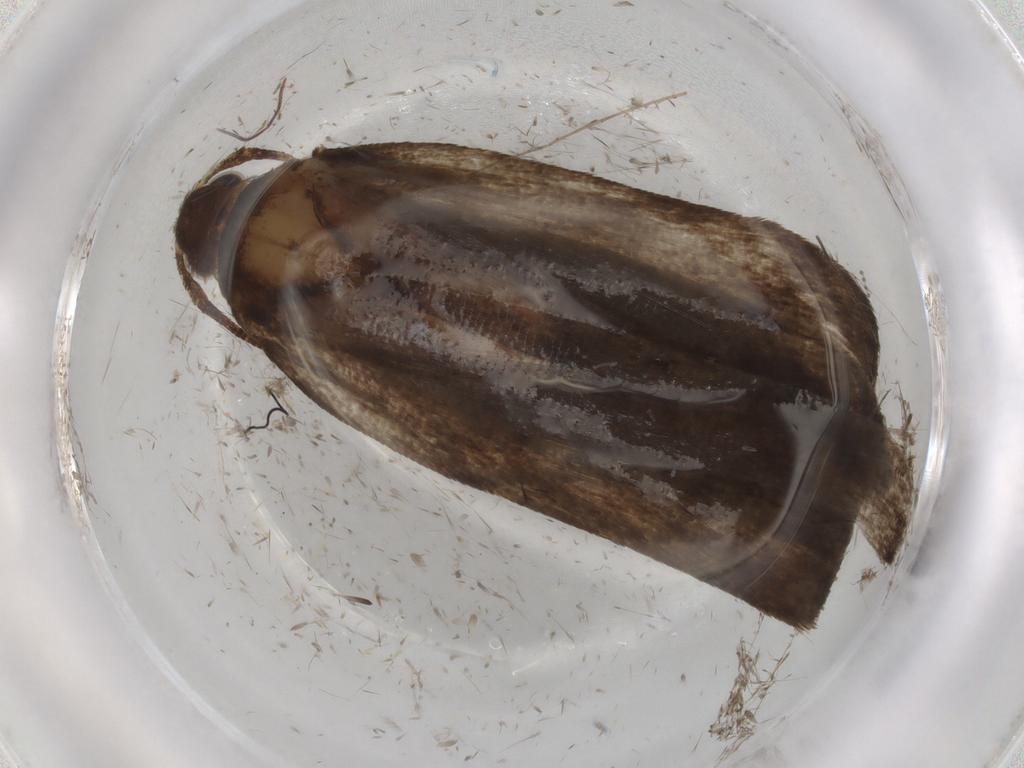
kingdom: Animalia
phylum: Arthropoda
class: Insecta
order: Lepidoptera
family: Autostichidae
